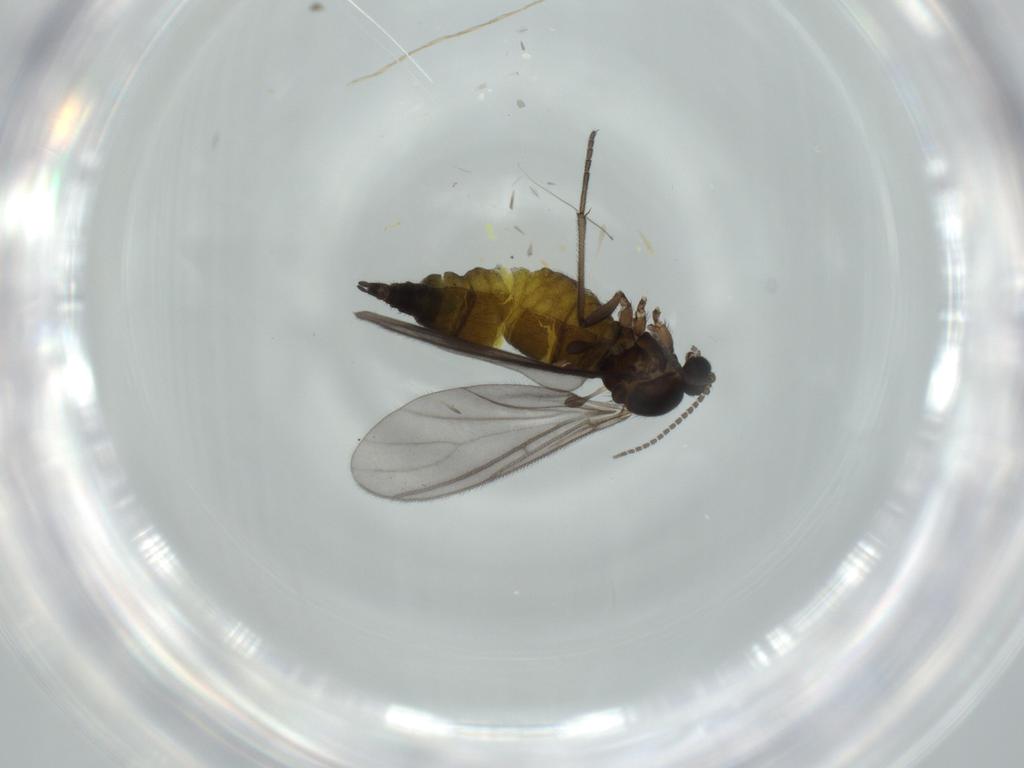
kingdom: Animalia
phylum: Arthropoda
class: Insecta
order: Diptera
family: Sciaridae
